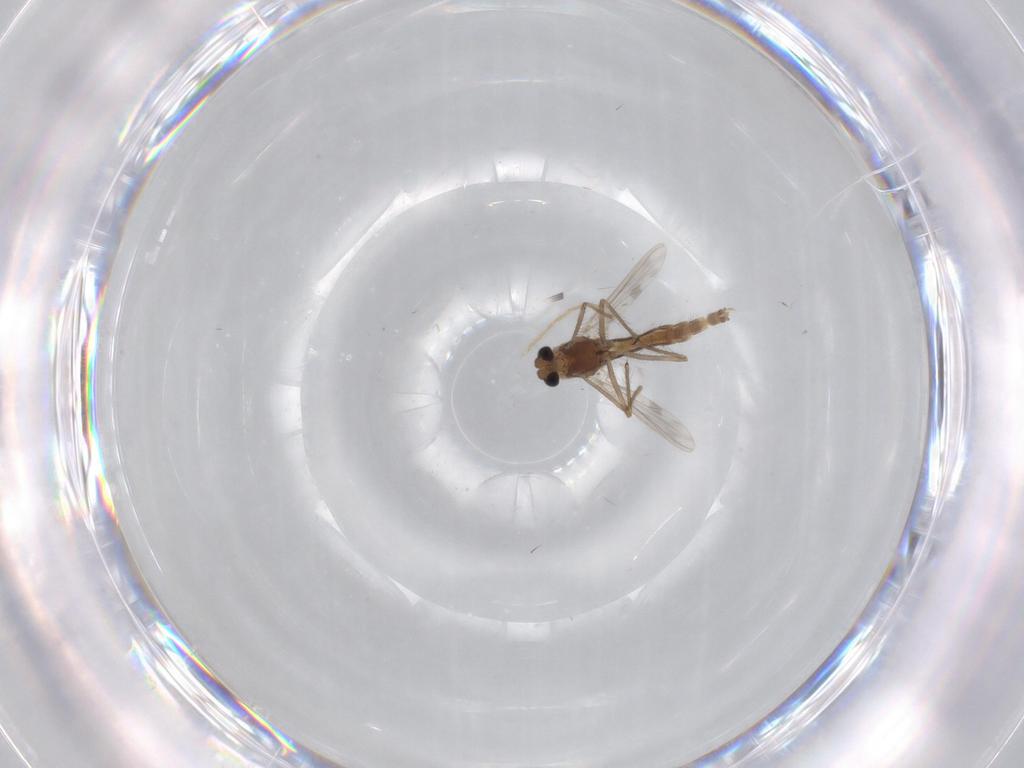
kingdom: Animalia
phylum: Arthropoda
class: Insecta
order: Diptera
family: Chironomidae
